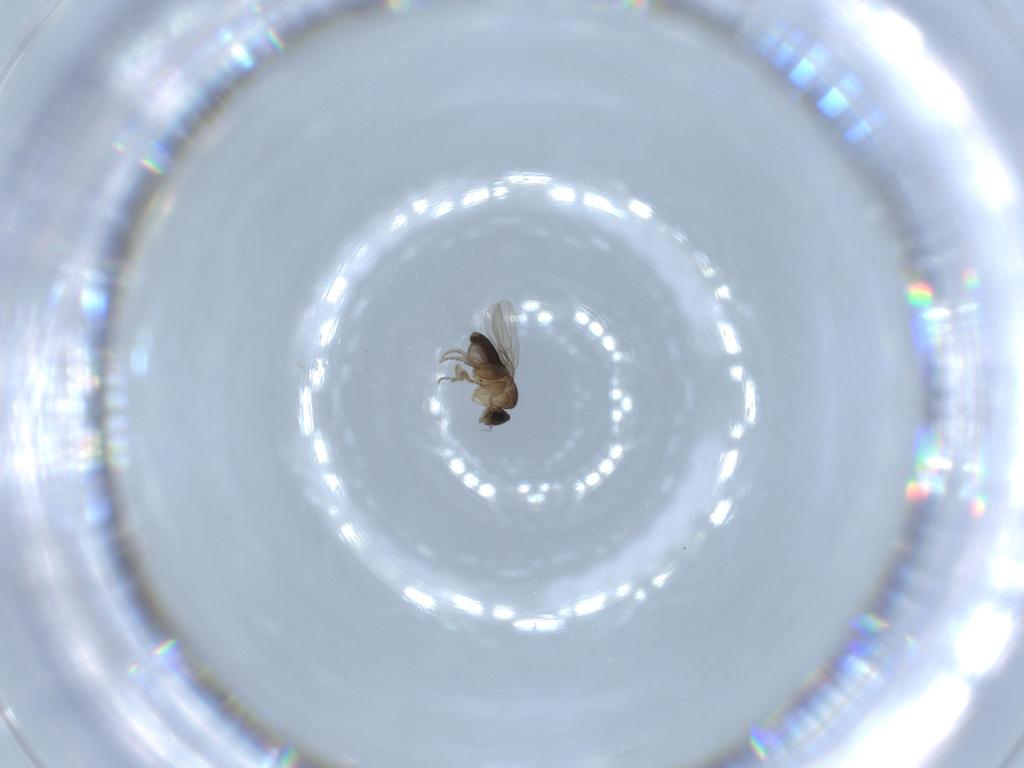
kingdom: Animalia
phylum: Arthropoda
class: Insecta
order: Diptera
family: Phoridae
